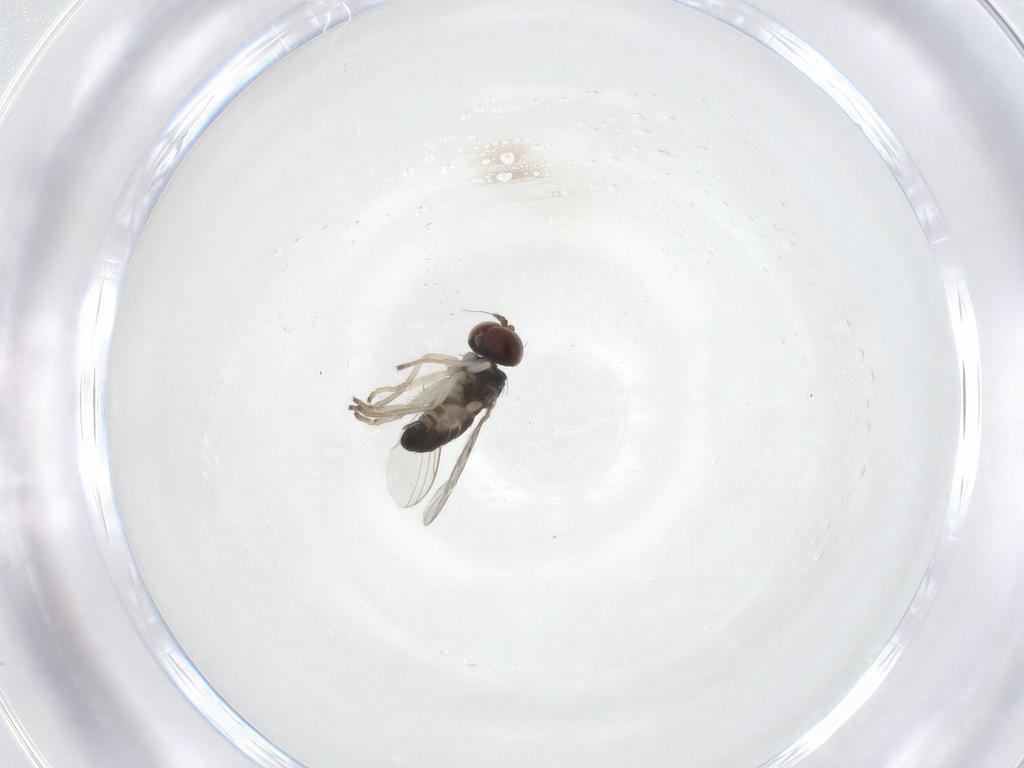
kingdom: Animalia
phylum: Arthropoda
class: Insecta
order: Diptera
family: Dolichopodidae
